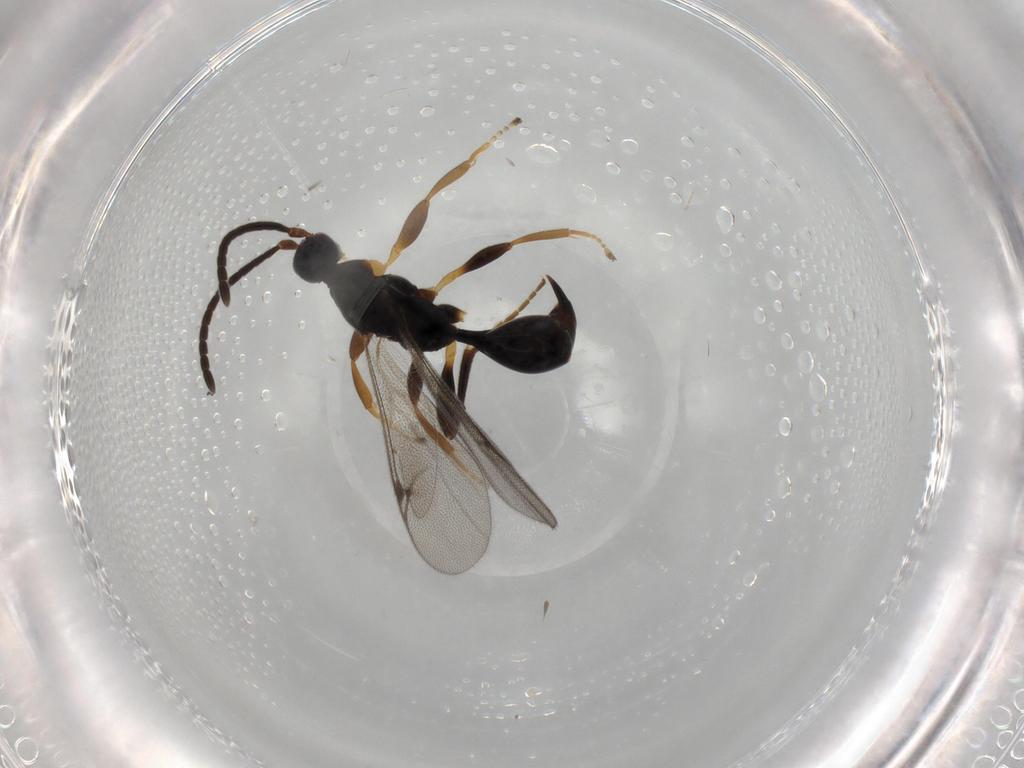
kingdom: Animalia
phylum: Arthropoda
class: Insecta
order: Hymenoptera
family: Proctotrupidae
